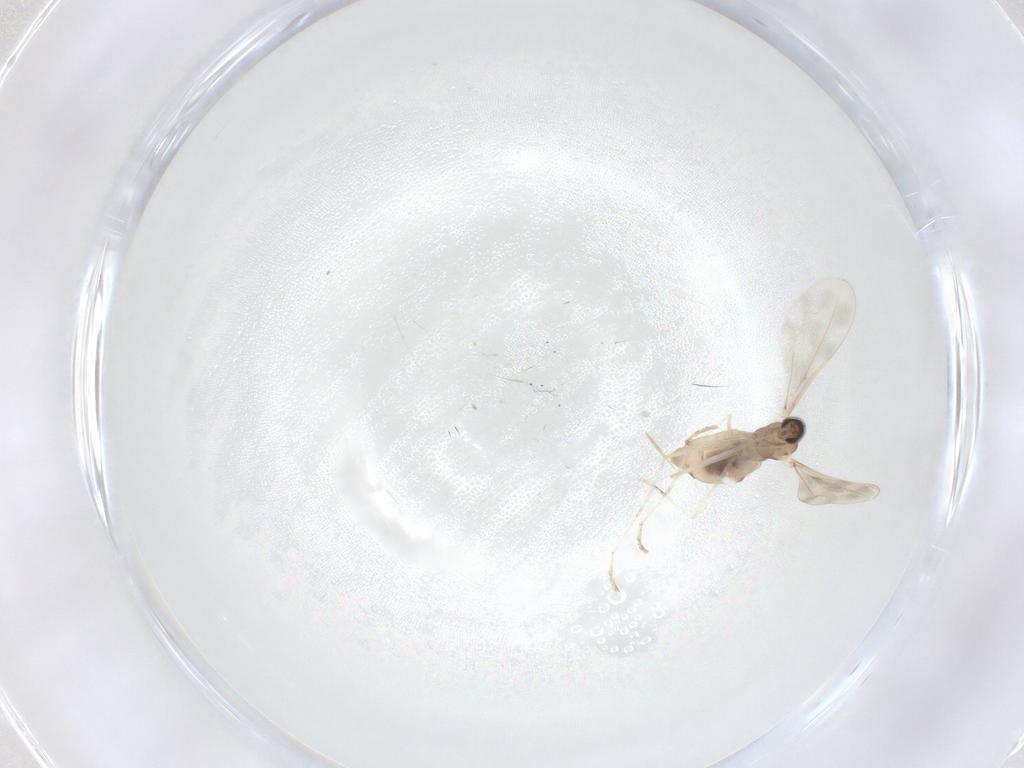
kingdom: Animalia
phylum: Arthropoda
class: Insecta
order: Diptera
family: Cecidomyiidae
